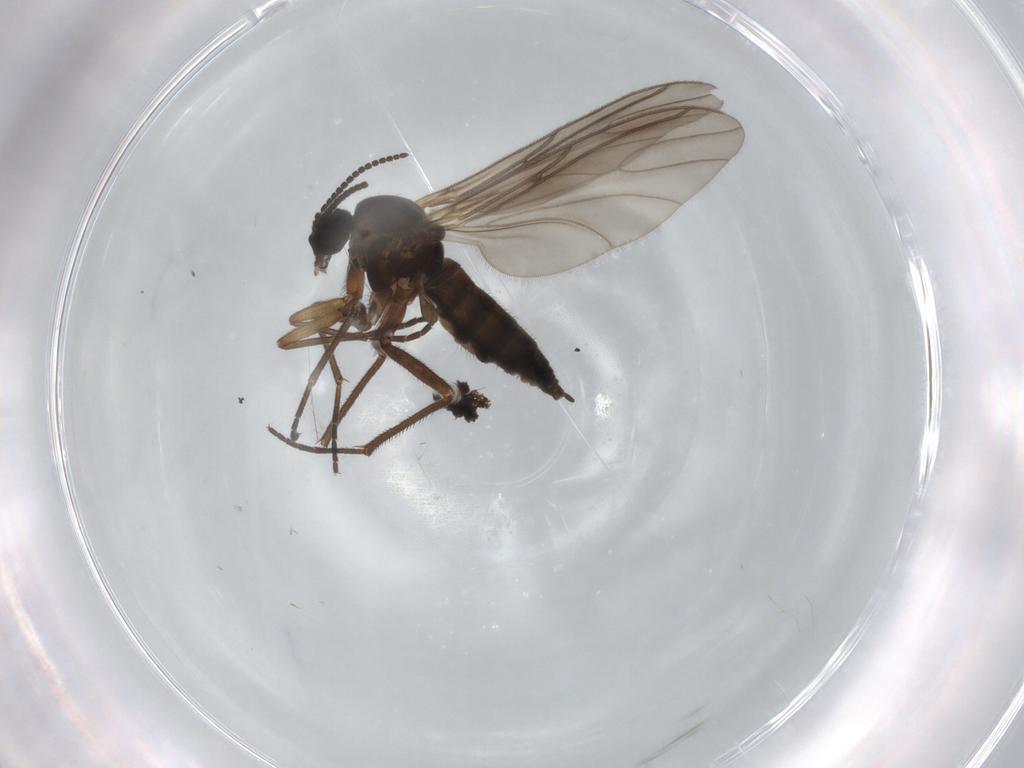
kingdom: Animalia
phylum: Arthropoda
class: Insecta
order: Diptera
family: Sciaridae
